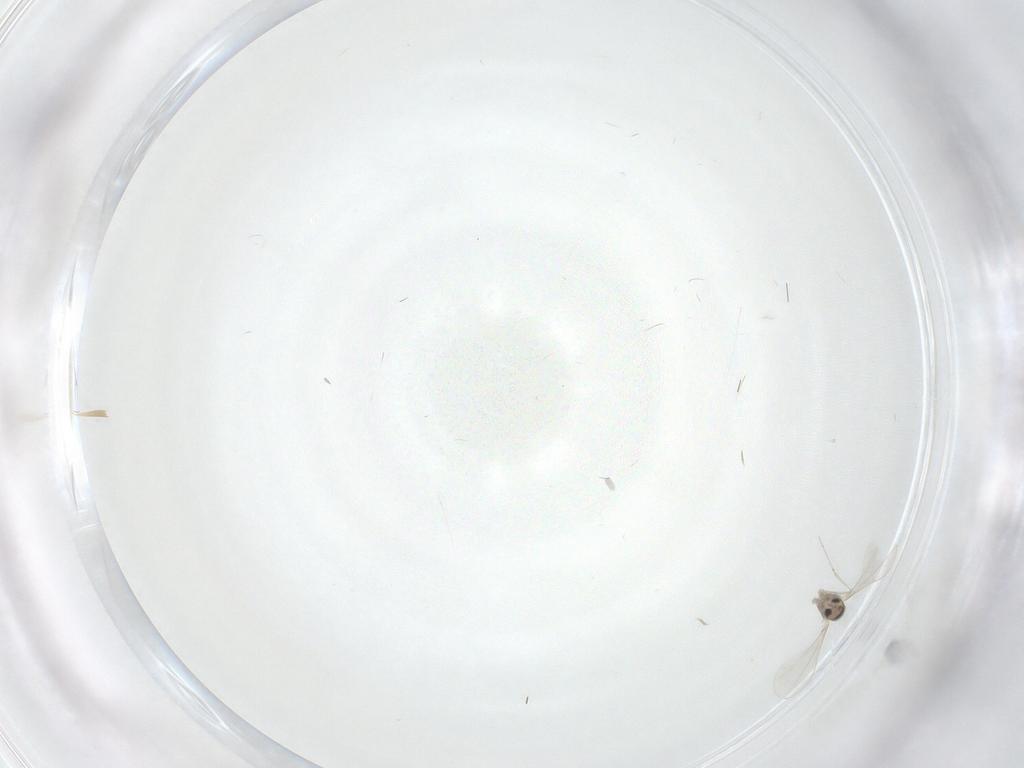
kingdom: Animalia
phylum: Arthropoda
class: Insecta
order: Diptera
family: Cecidomyiidae
